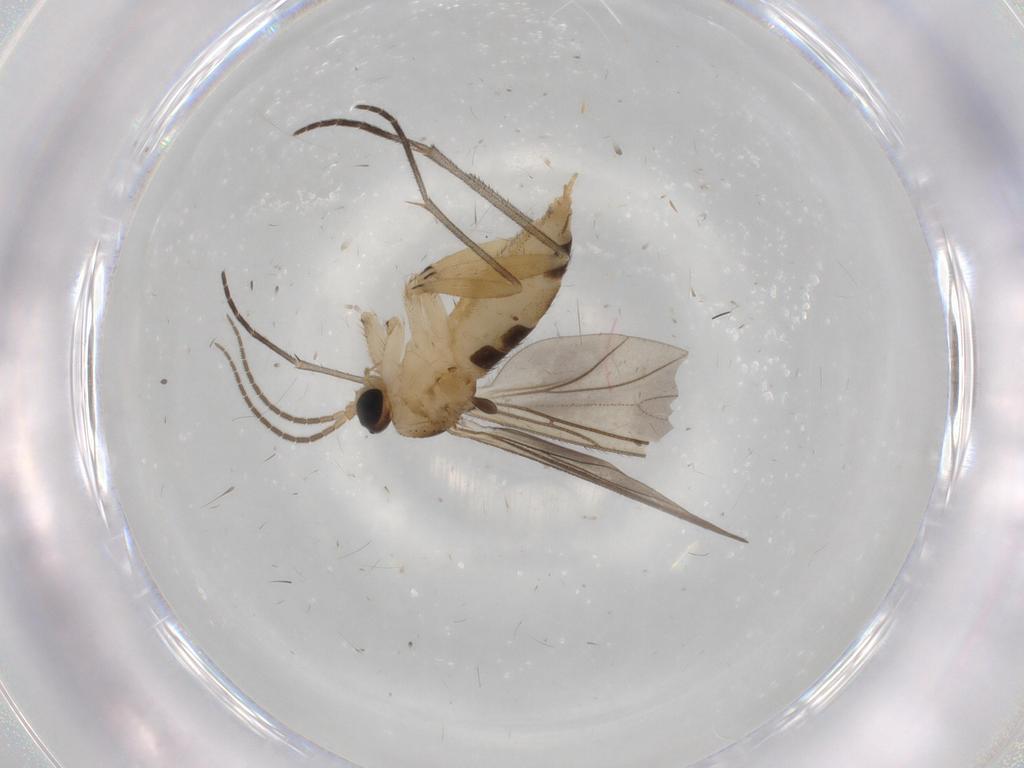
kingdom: Animalia
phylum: Arthropoda
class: Insecta
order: Diptera
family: Sciaridae
